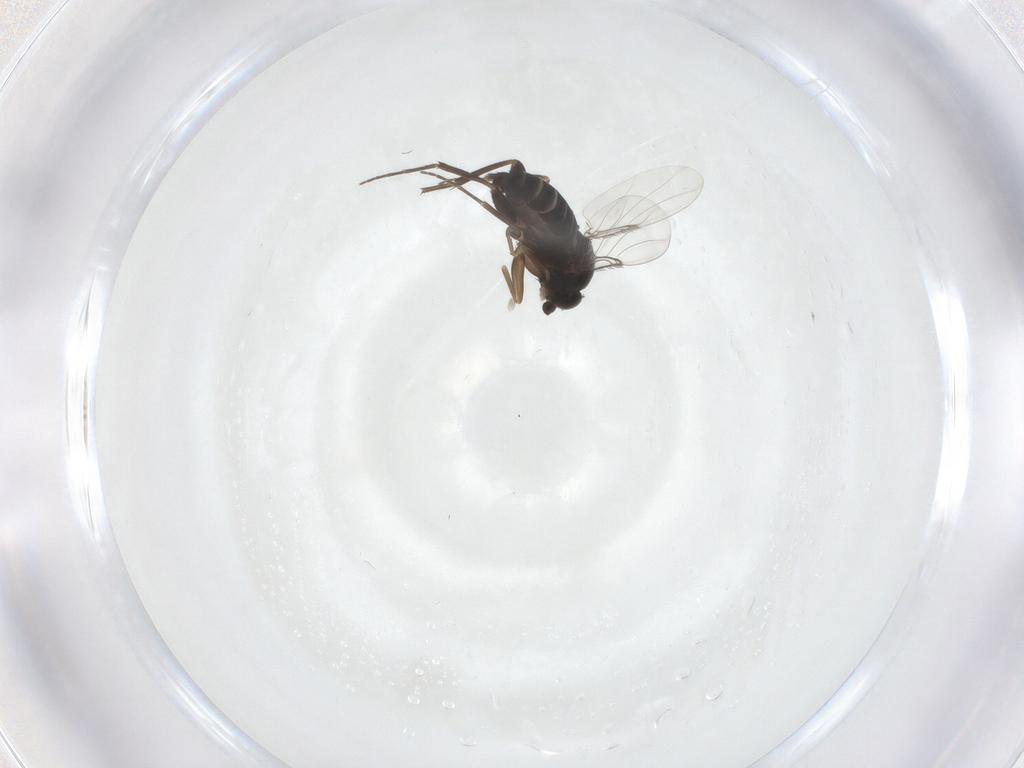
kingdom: Animalia
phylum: Arthropoda
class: Insecta
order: Diptera
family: Phoridae
